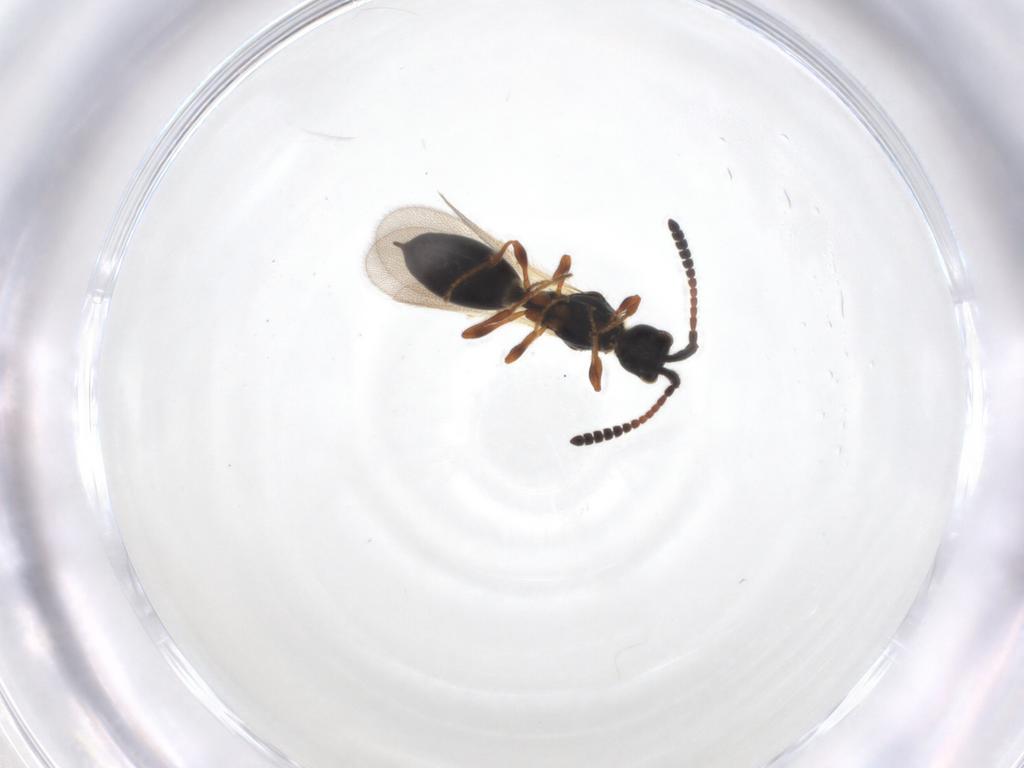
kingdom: Animalia
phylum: Arthropoda
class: Insecta
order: Hymenoptera
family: Diapriidae
